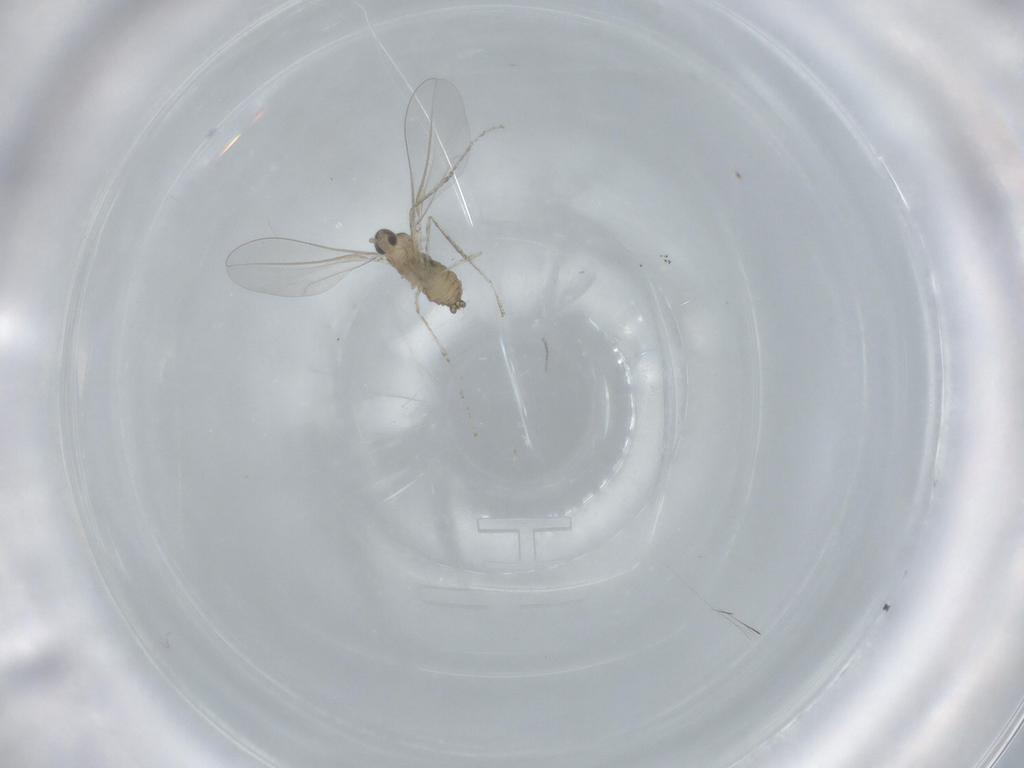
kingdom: Animalia
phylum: Arthropoda
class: Insecta
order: Diptera
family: Cecidomyiidae
